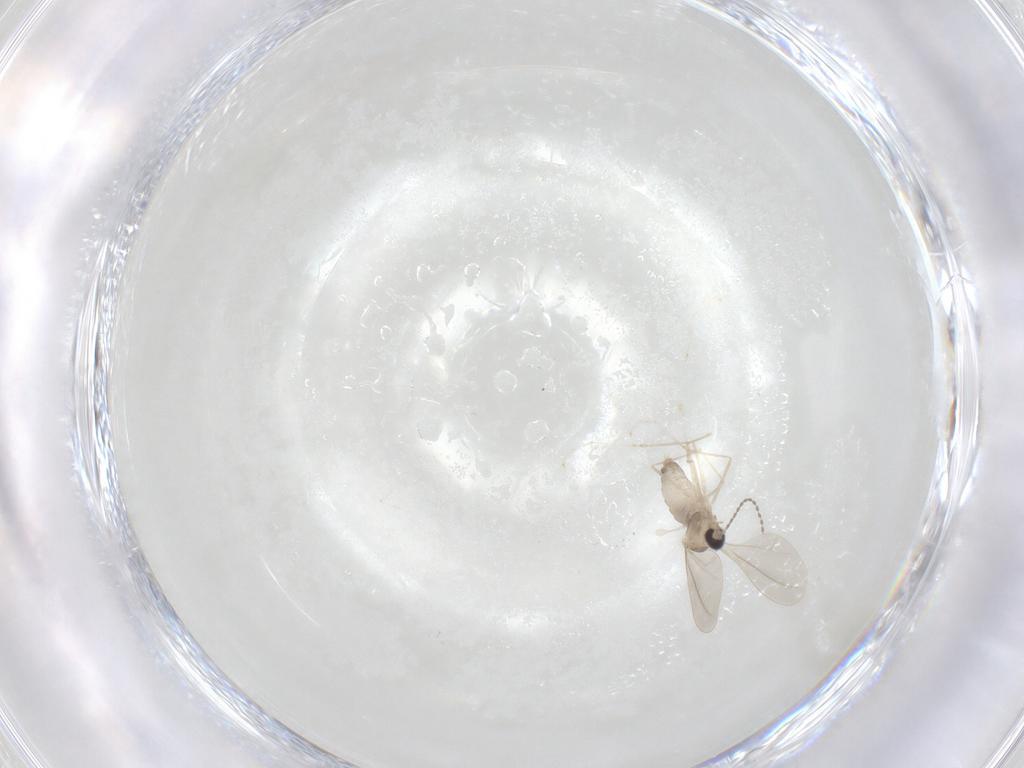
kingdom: Animalia
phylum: Arthropoda
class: Insecta
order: Diptera
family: Cecidomyiidae
